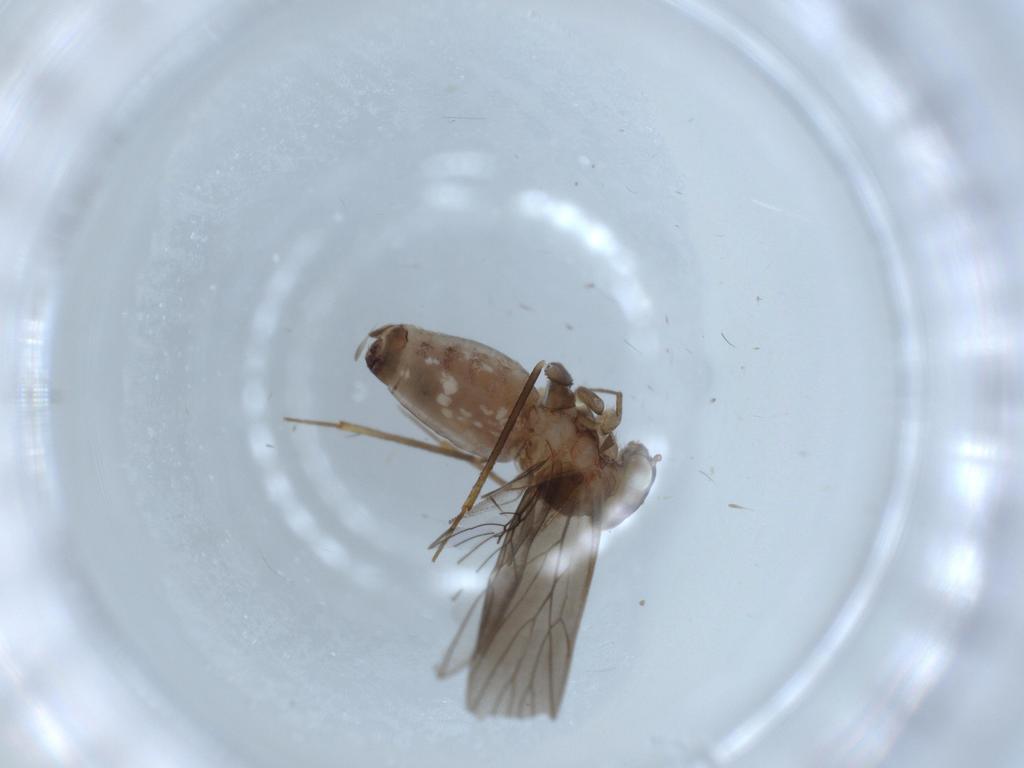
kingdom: Animalia
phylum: Arthropoda
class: Insecta
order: Psocodea
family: Lepidopsocidae
